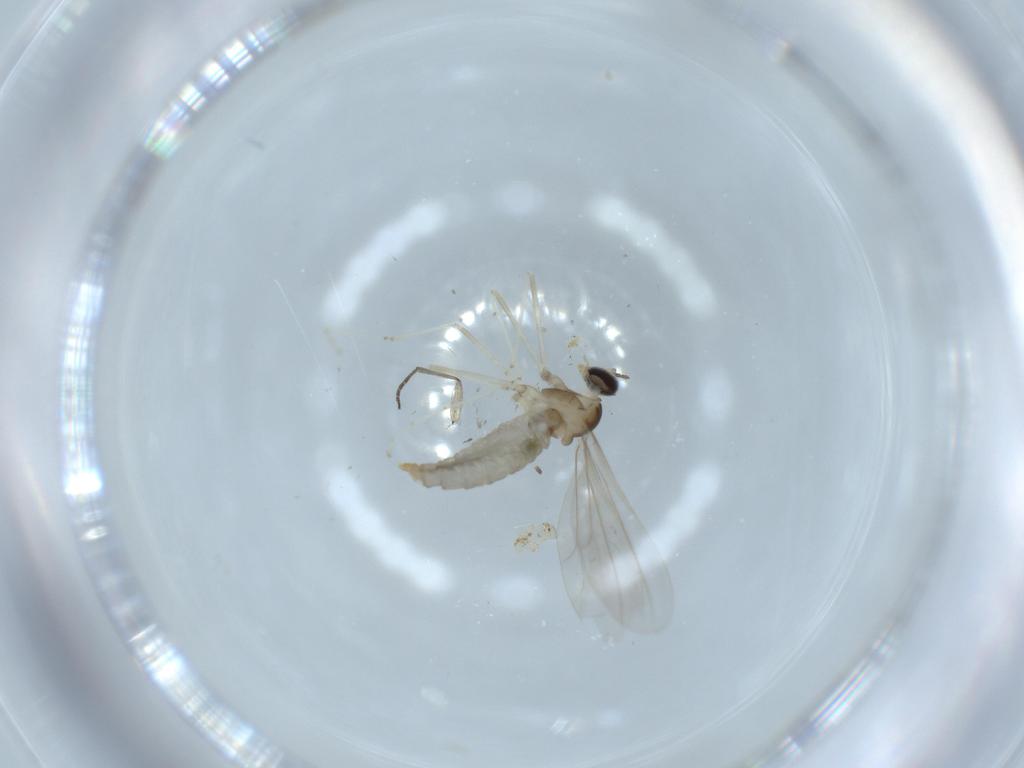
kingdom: Animalia
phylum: Arthropoda
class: Insecta
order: Diptera
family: Cecidomyiidae
